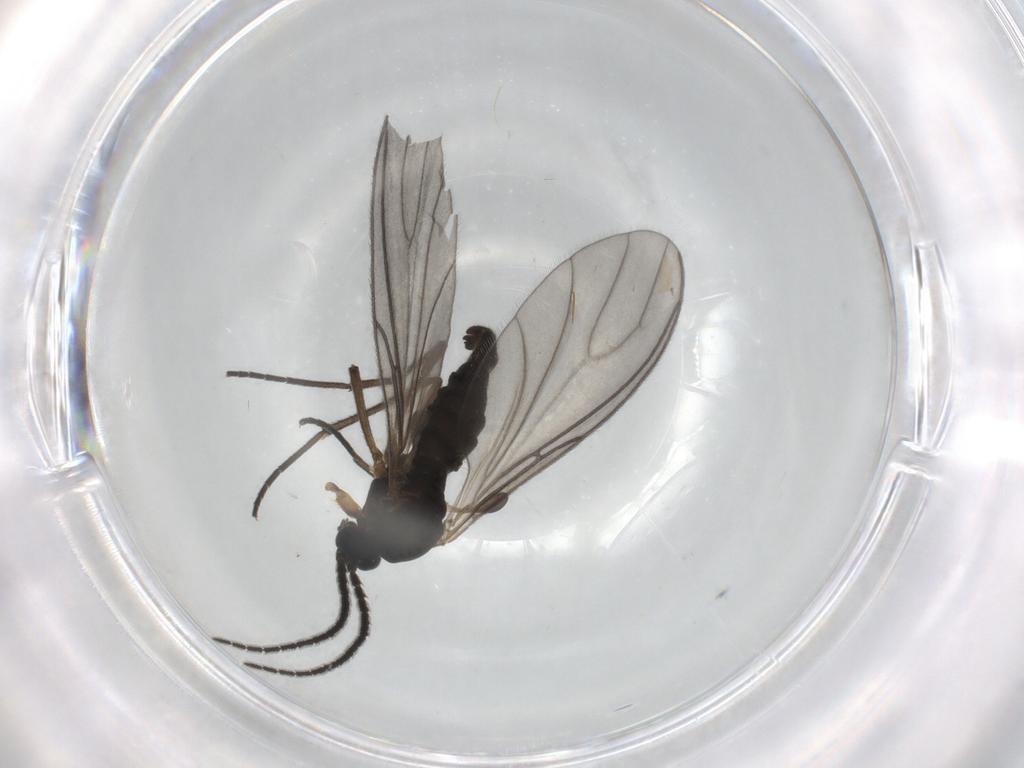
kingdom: Animalia
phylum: Arthropoda
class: Insecta
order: Diptera
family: Sciaridae
